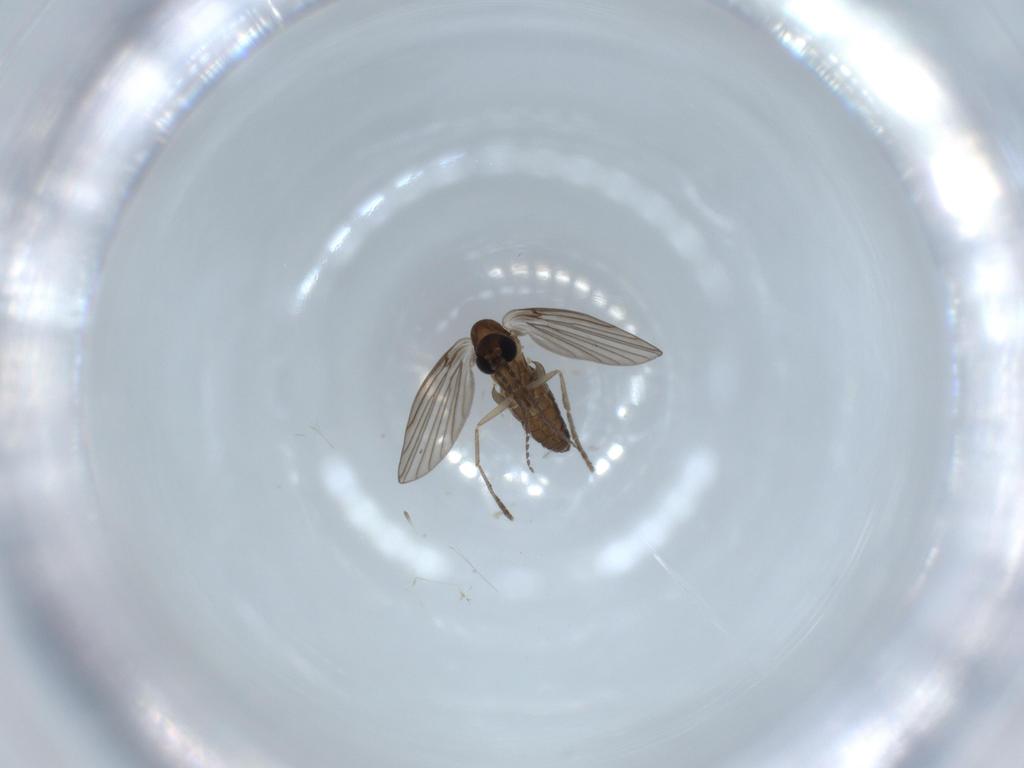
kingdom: Animalia
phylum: Arthropoda
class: Insecta
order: Diptera
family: Psychodidae
